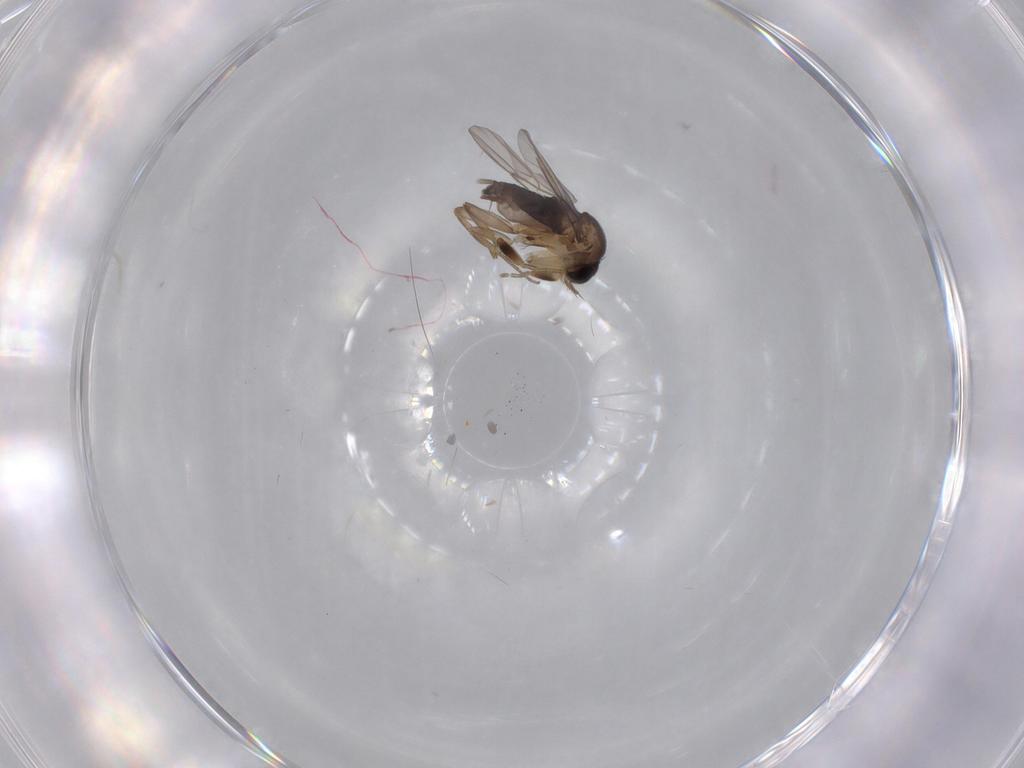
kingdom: Animalia
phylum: Arthropoda
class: Insecta
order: Diptera
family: Phoridae
